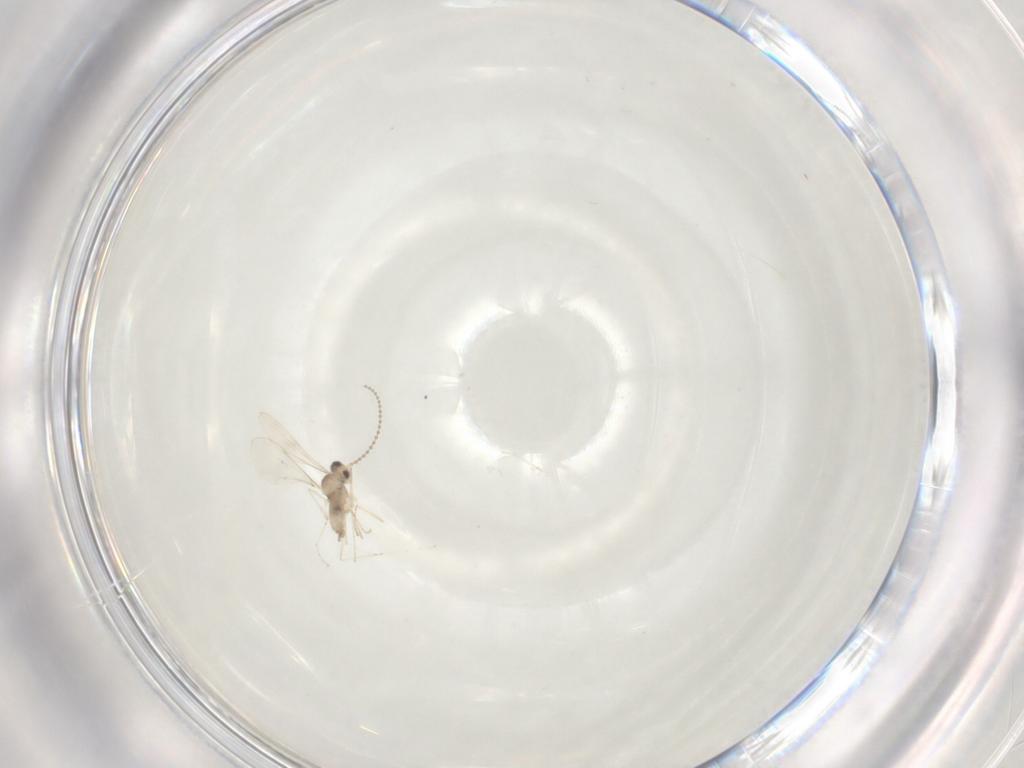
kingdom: Animalia
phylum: Arthropoda
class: Insecta
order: Diptera
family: Cecidomyiidae
